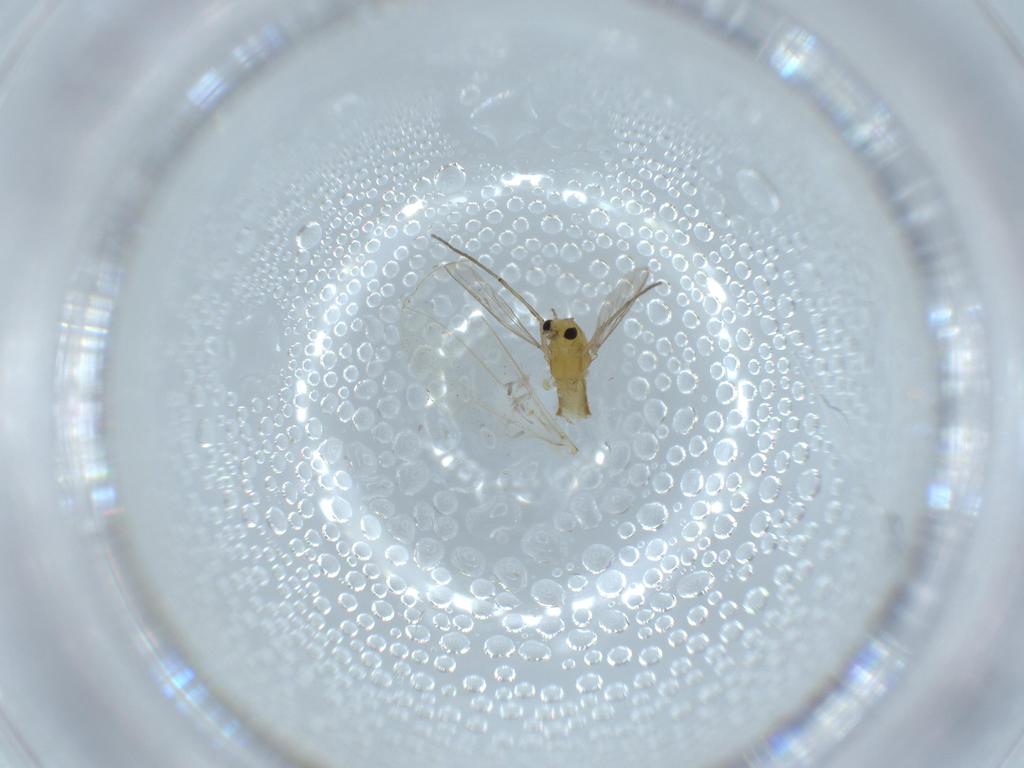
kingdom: Animalia
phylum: Arthropoda
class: Insecta
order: Diptera
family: Chironomidae
